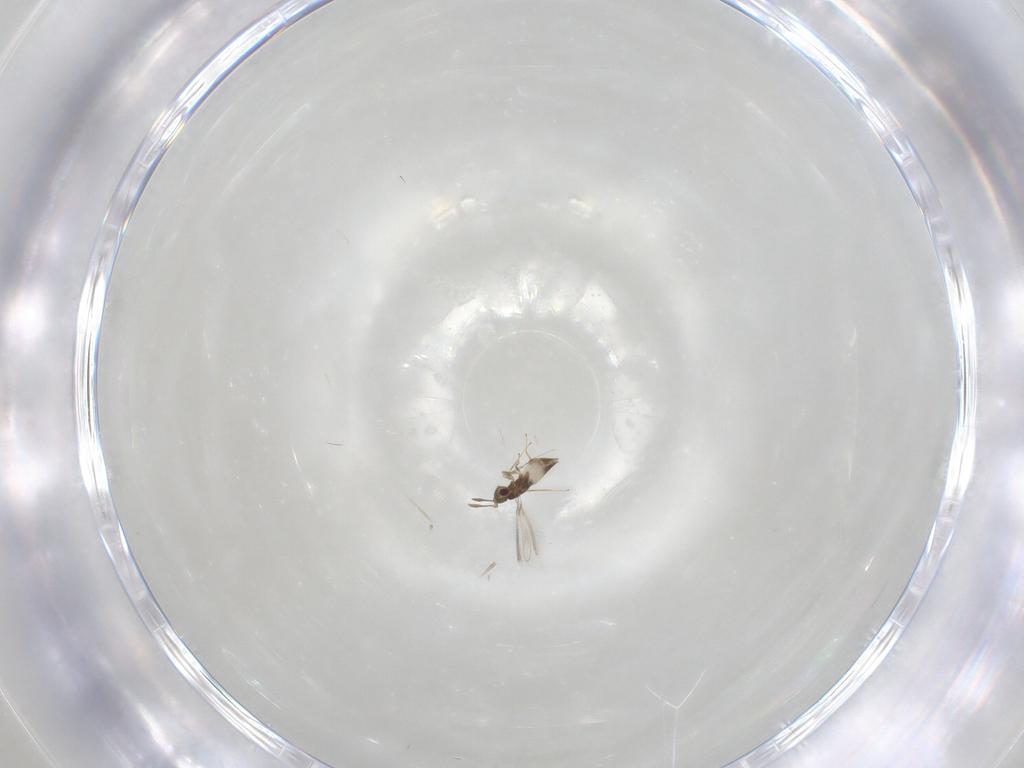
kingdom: Animalia
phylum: Arthropoda
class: Insecta
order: Hymenoptera
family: Mymaridae
